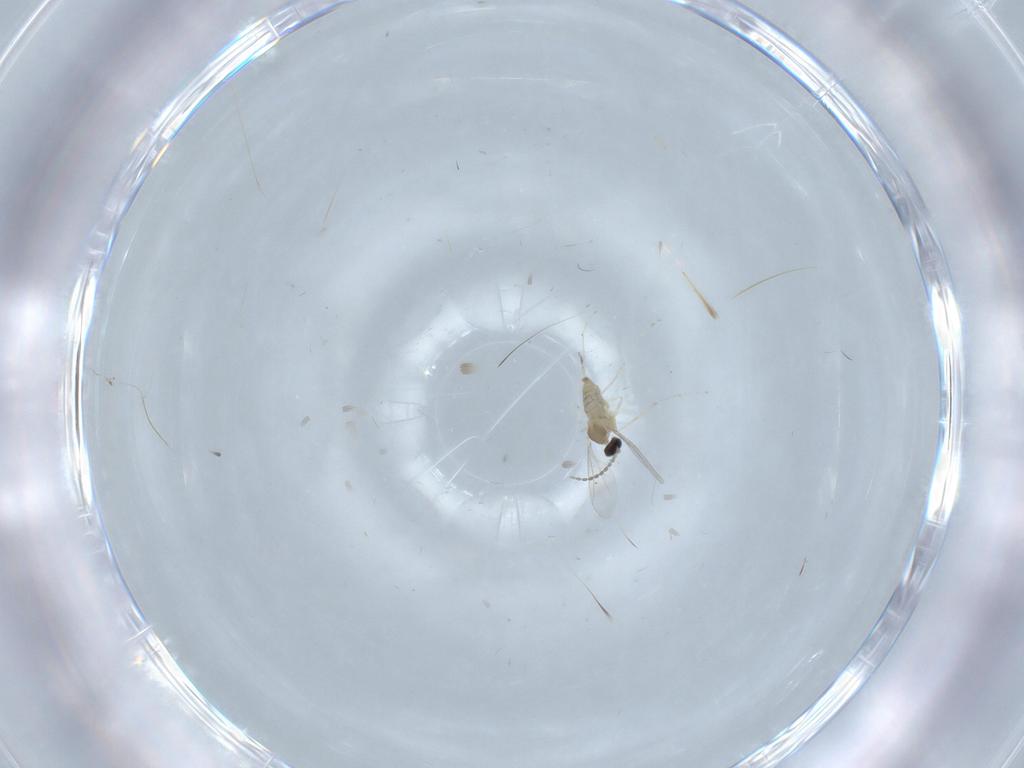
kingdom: Animalia
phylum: Arthropoda
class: Insecta
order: Diptera
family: Cecidomyiidae
